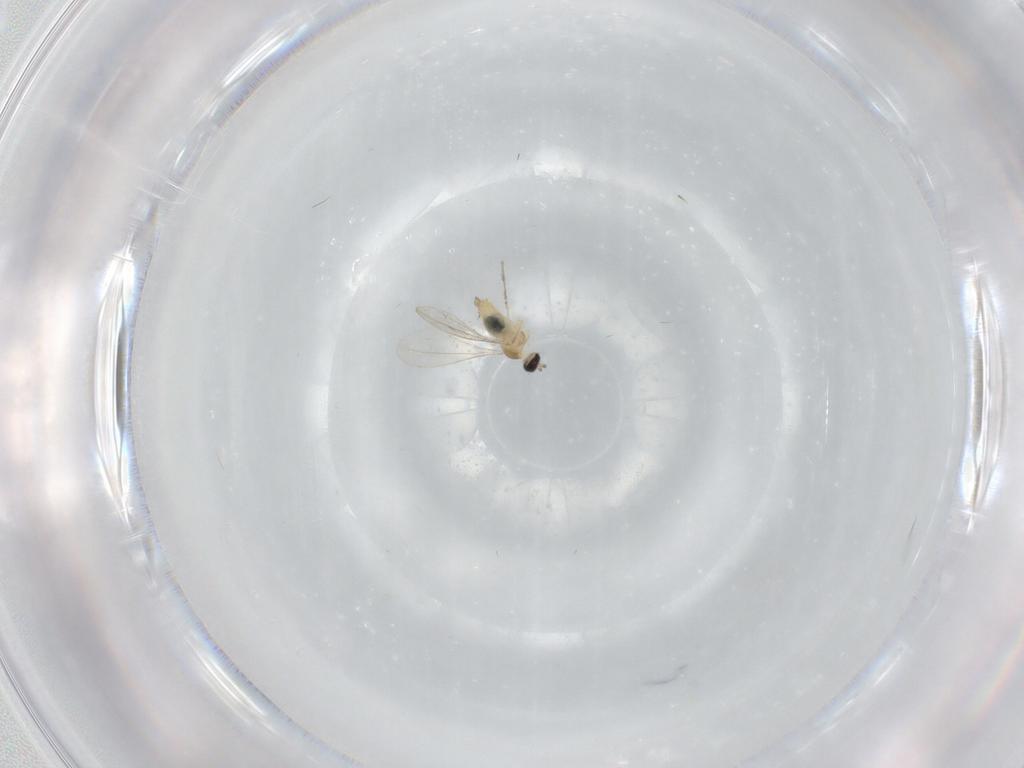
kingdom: Animalia
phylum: Arthropoda
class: Insecta
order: Diptera
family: Cecidomyiidae
